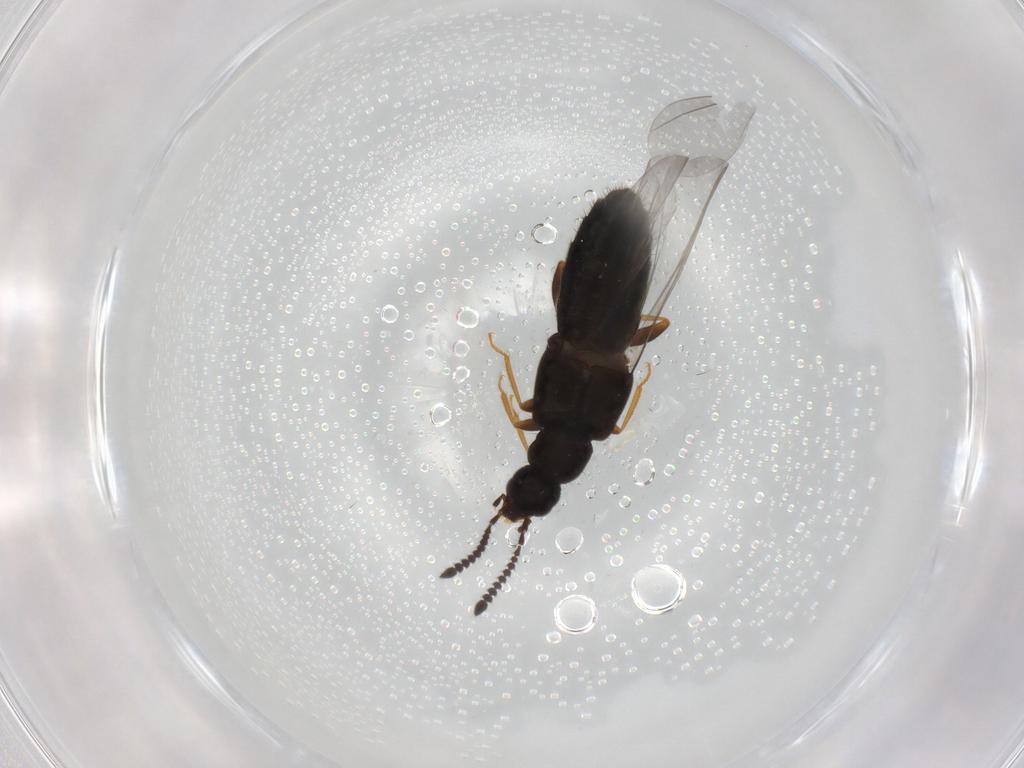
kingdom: Animalia
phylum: Arthropoda
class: Insecta
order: Coleoptera
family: Staphylinidae
